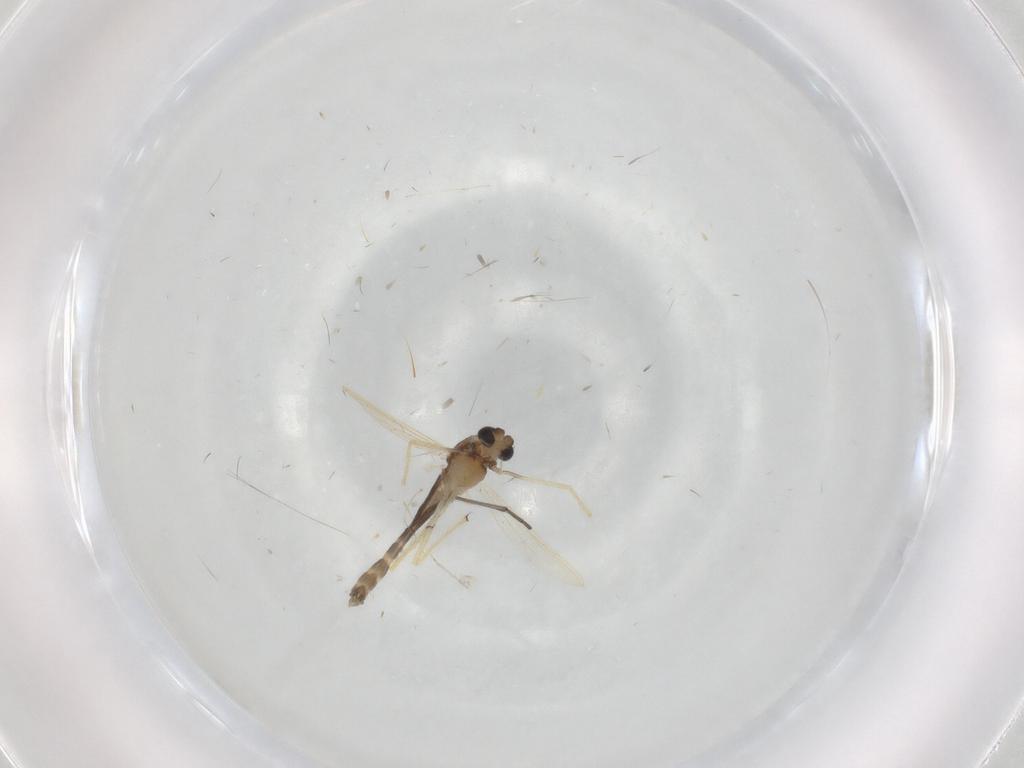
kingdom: Animalia
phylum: Arthropoda
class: Insecta
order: Diptera
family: Chironomidae
